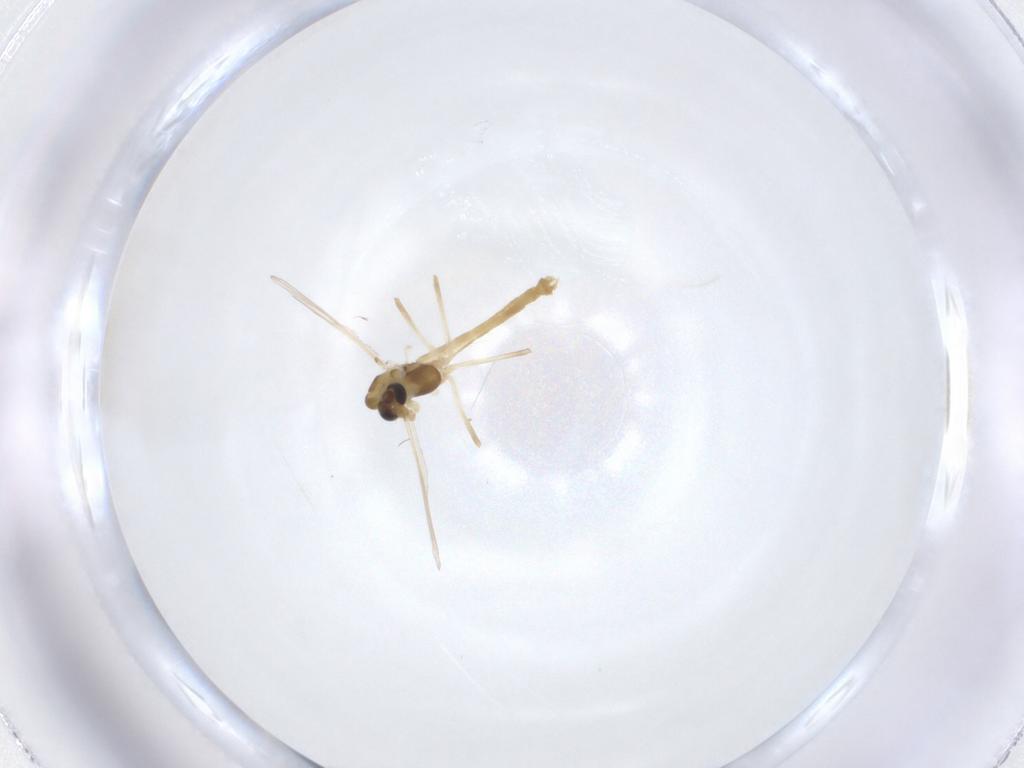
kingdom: Animalia
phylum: Arthropoda
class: Insecta
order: Diptera
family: Chironomidae
